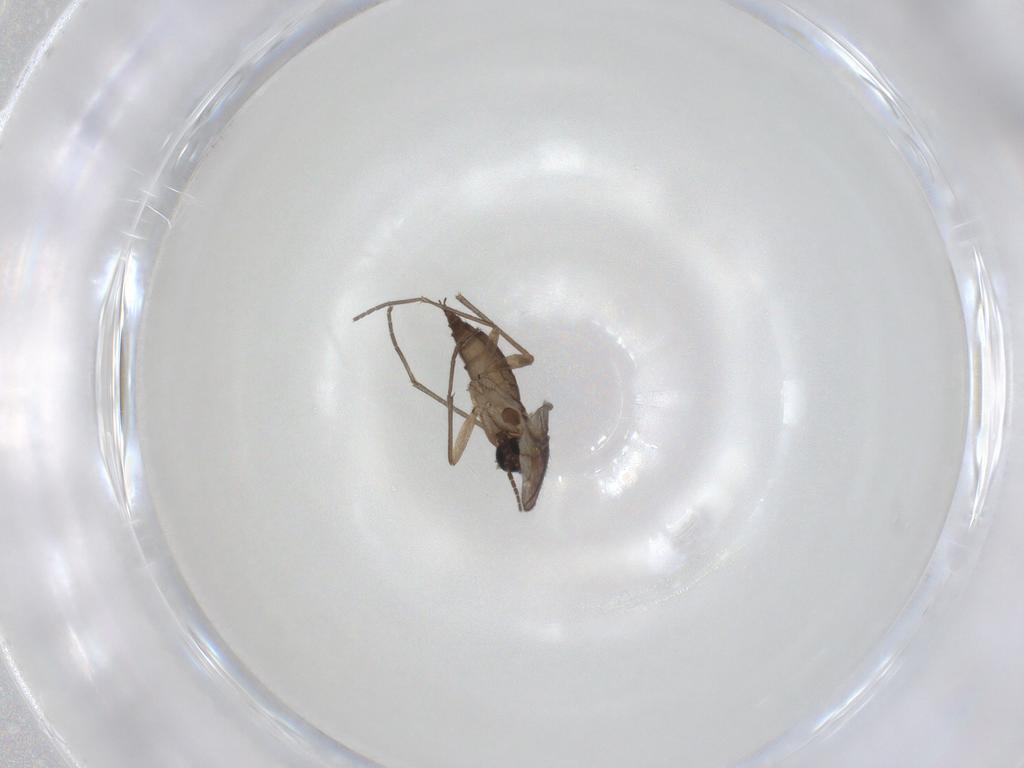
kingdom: Animalia
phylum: Arthropoda
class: Insecta
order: Diptera
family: Sciaridae
